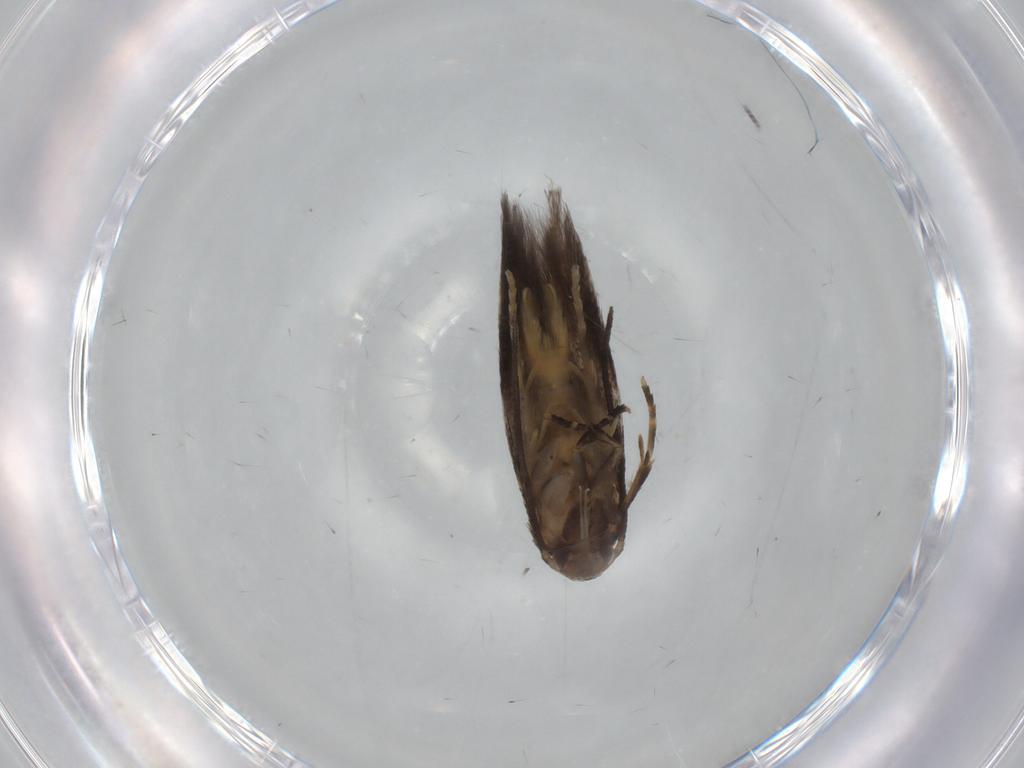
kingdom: Animalia
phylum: Arthropoda
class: Insecta
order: Lepidoptera
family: Elachistidae
